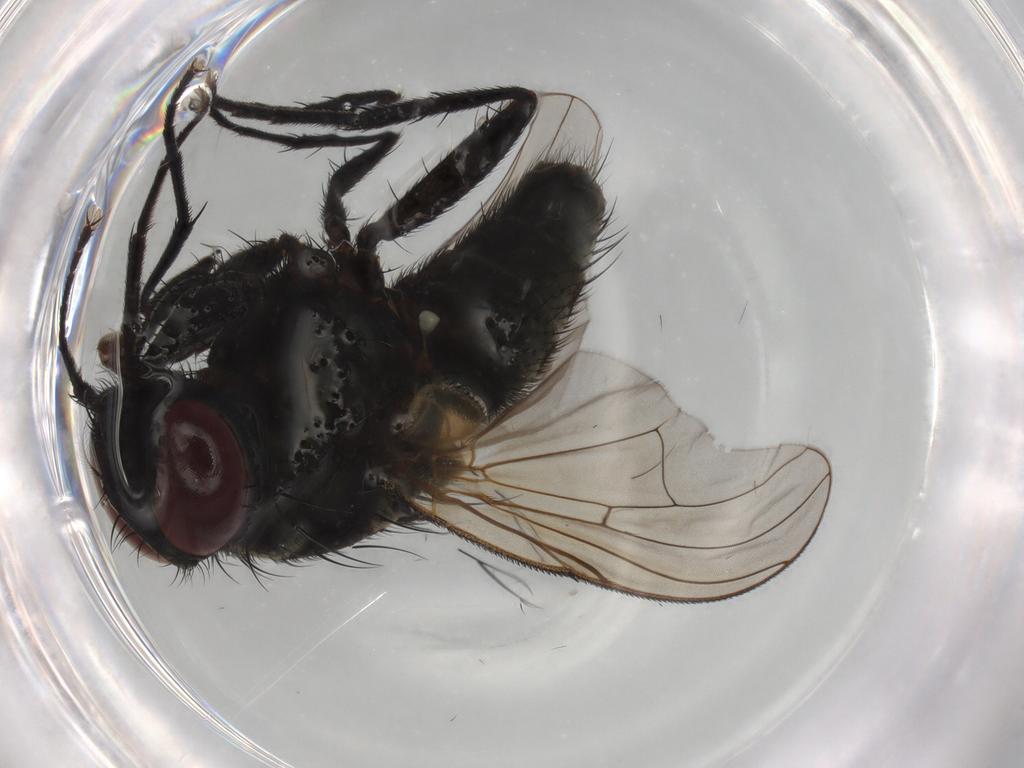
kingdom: Animalia
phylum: Arthropoda
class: Insecta
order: Diptera
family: Muscidae
